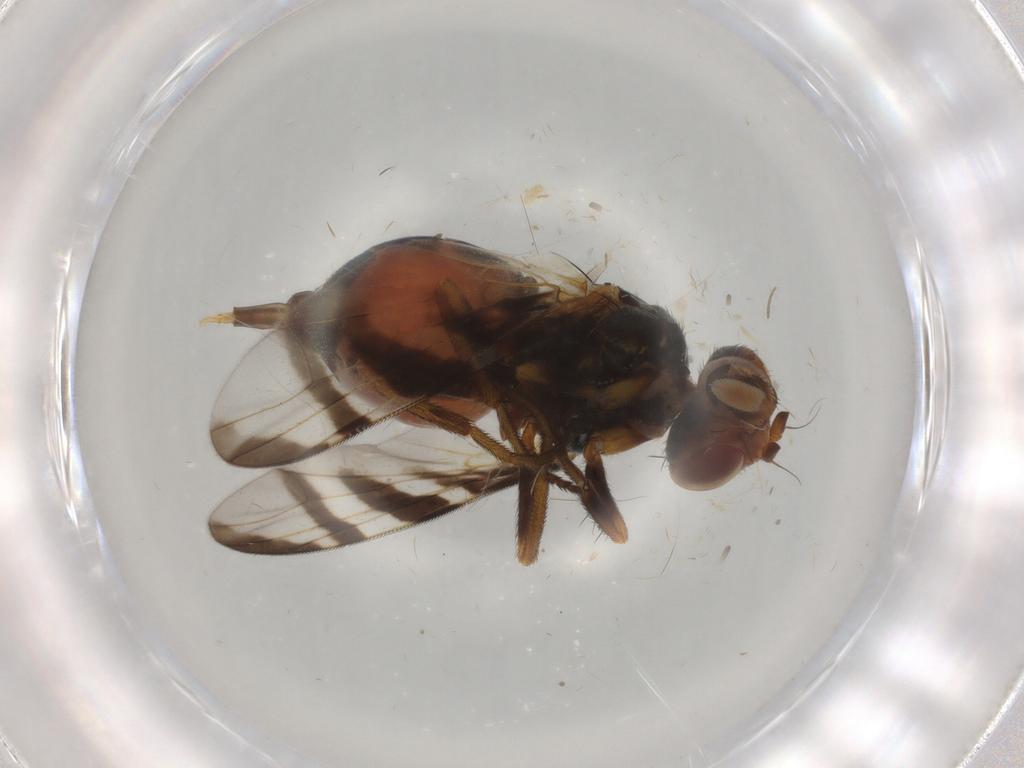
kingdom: Animalia
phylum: Arthropoda
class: Insecta
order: Diptera
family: Platystomatidae
